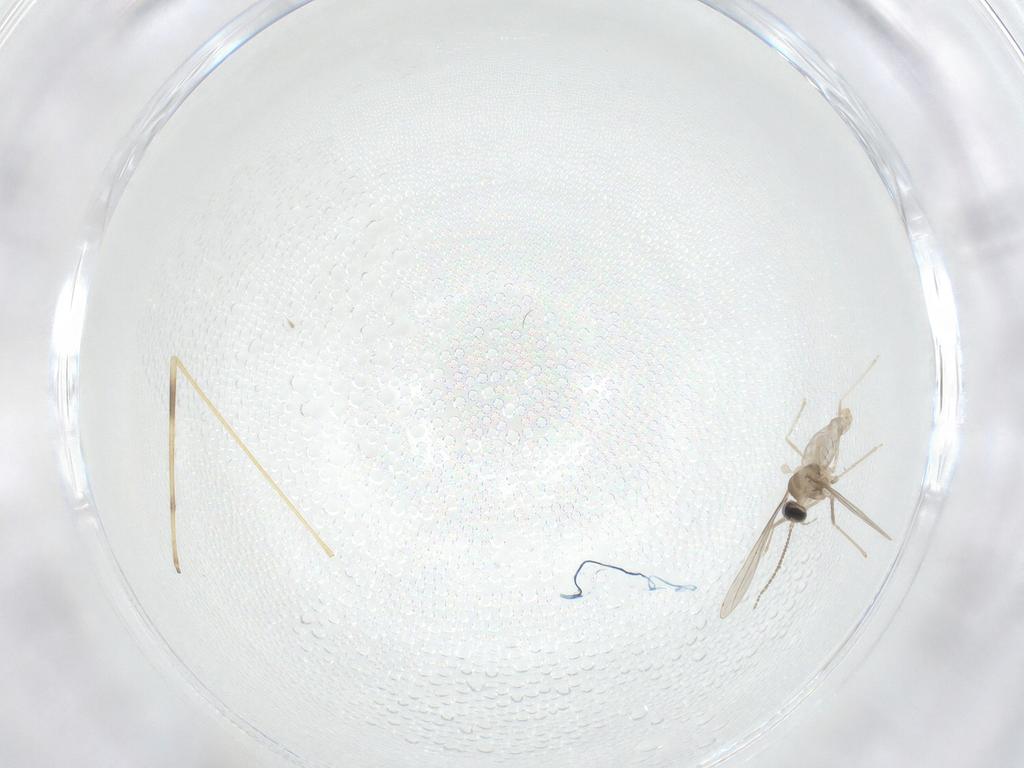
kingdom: Animalia
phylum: Arthropoda
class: Insecta
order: Diptera
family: Cecidomyiidae
